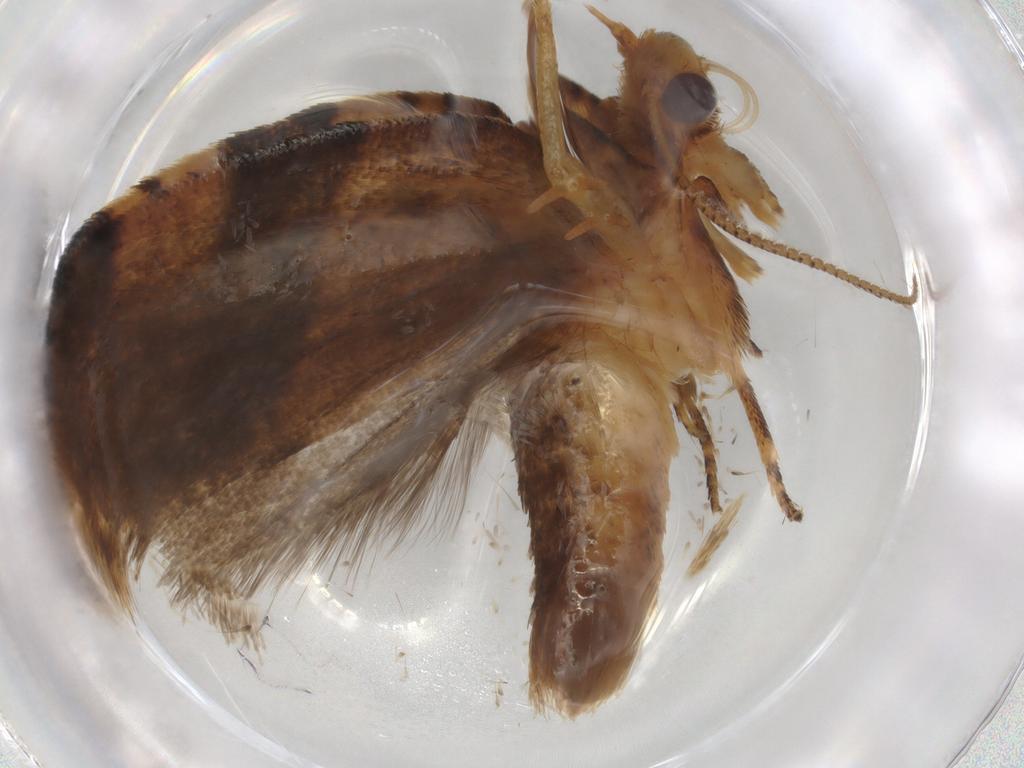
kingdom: Animalia
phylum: Arthropoda
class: Insecta
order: Lepidoptera
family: Tortricidae
